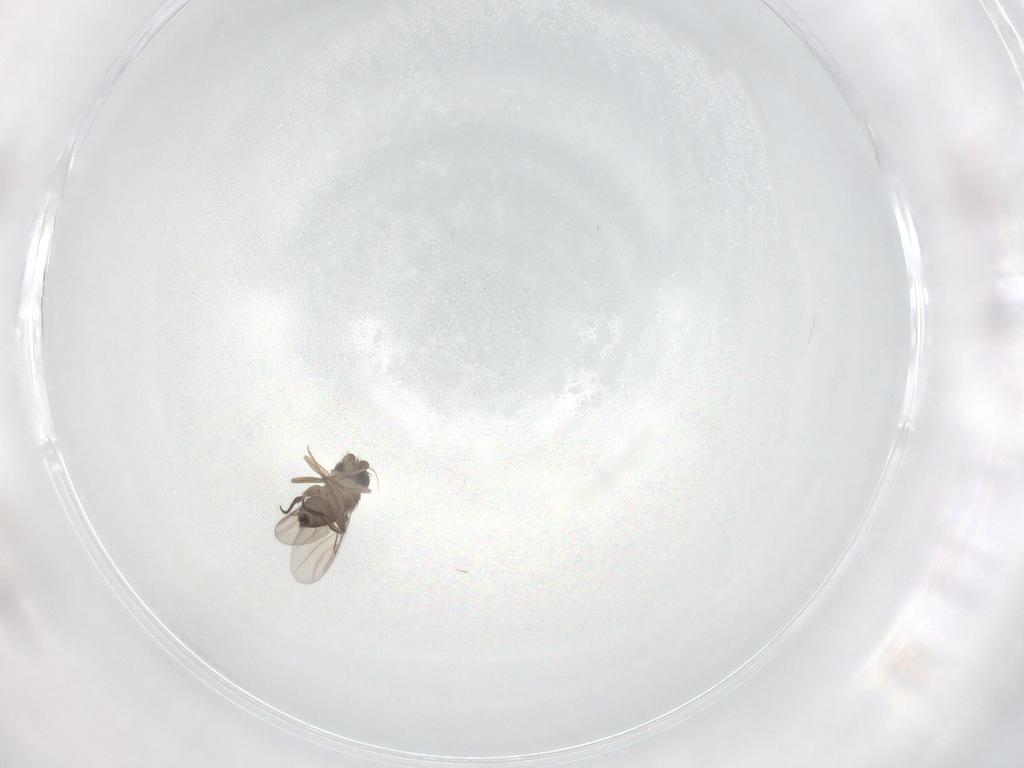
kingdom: Animalia
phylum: Arthropoda
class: Insecta
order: Diptera
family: Phoridae
